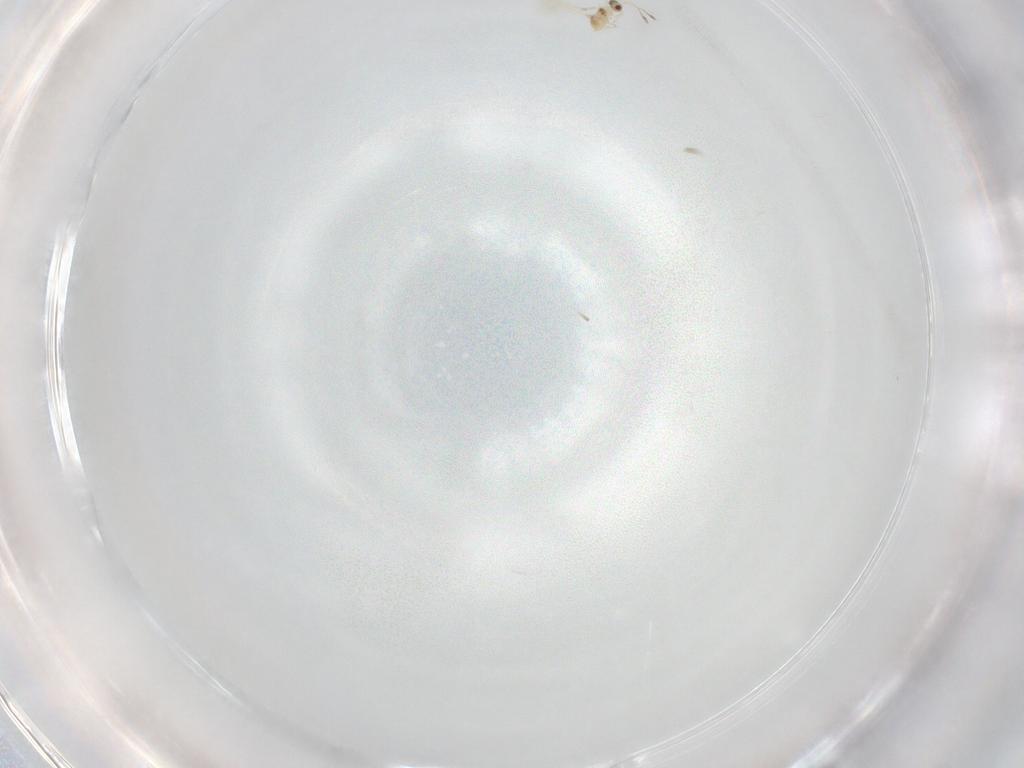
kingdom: Animalia
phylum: Arthropoda
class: Insecta
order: Hymenoptera
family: Mymaridae
